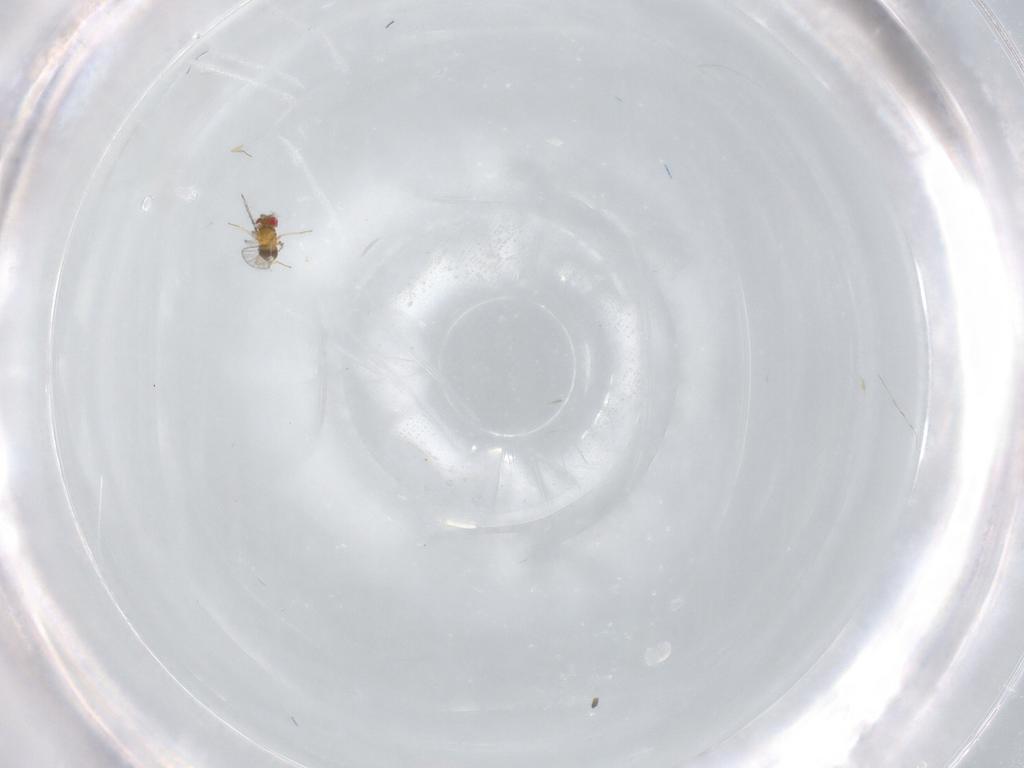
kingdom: Animalia
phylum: Arthropoda
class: Insecta
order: Hymenoptera
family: Trichogrammatidae
